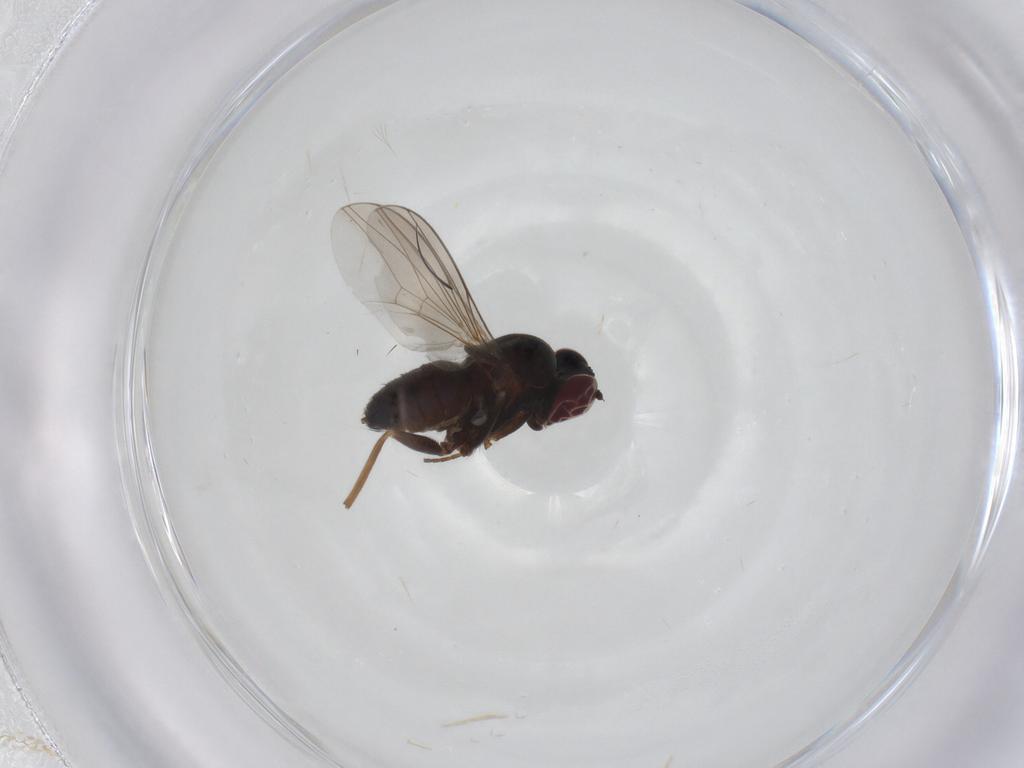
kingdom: Animalia
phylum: Arthropoda
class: Insecta
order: Diptera
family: Dolichopodidae
